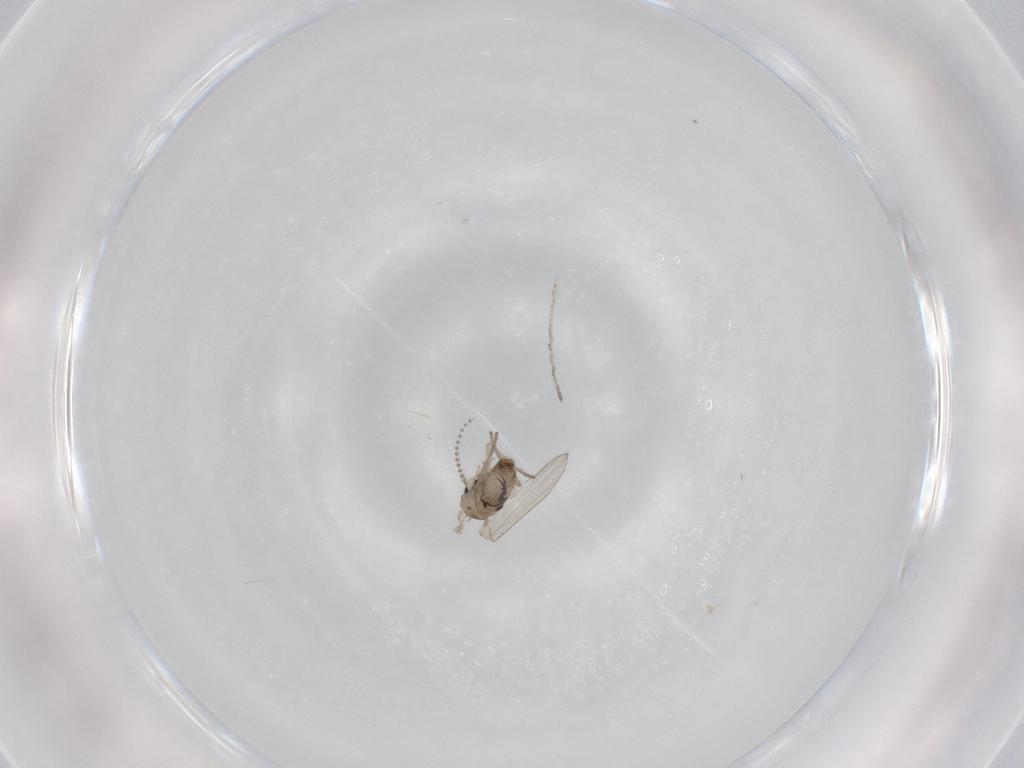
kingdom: Animalia
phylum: Arthropoda
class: Insecta
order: Diptera
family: Psychodidae
